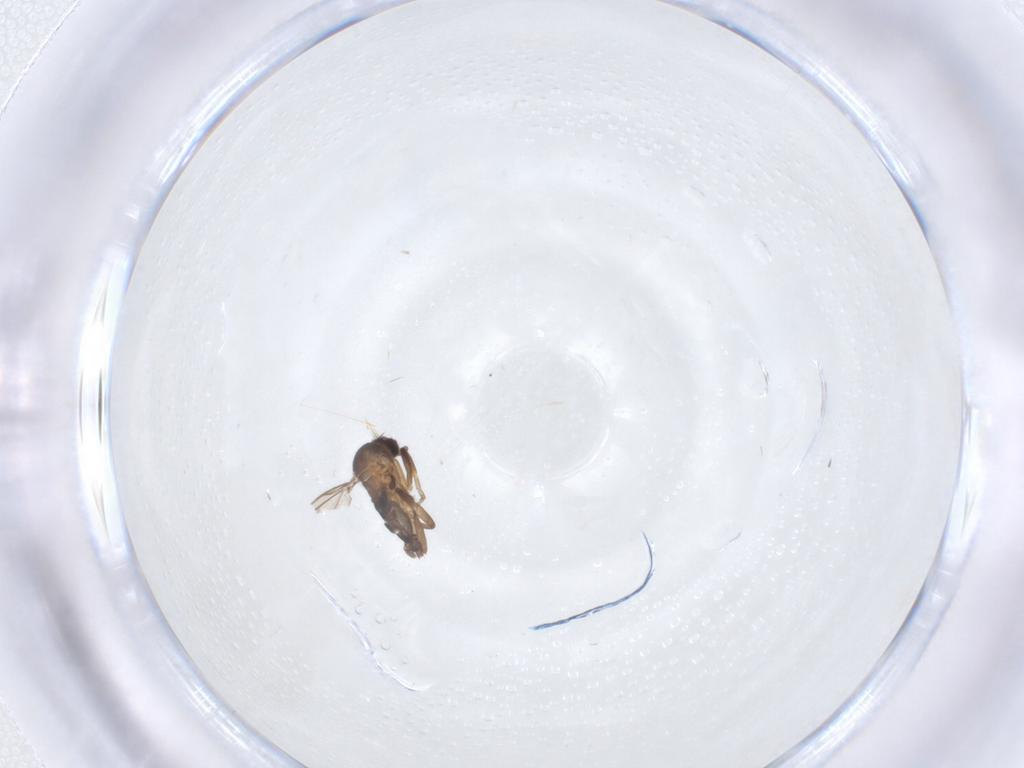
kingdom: Animalia
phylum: Arthropoda
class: Insecta
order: Diptera
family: Phoridae
